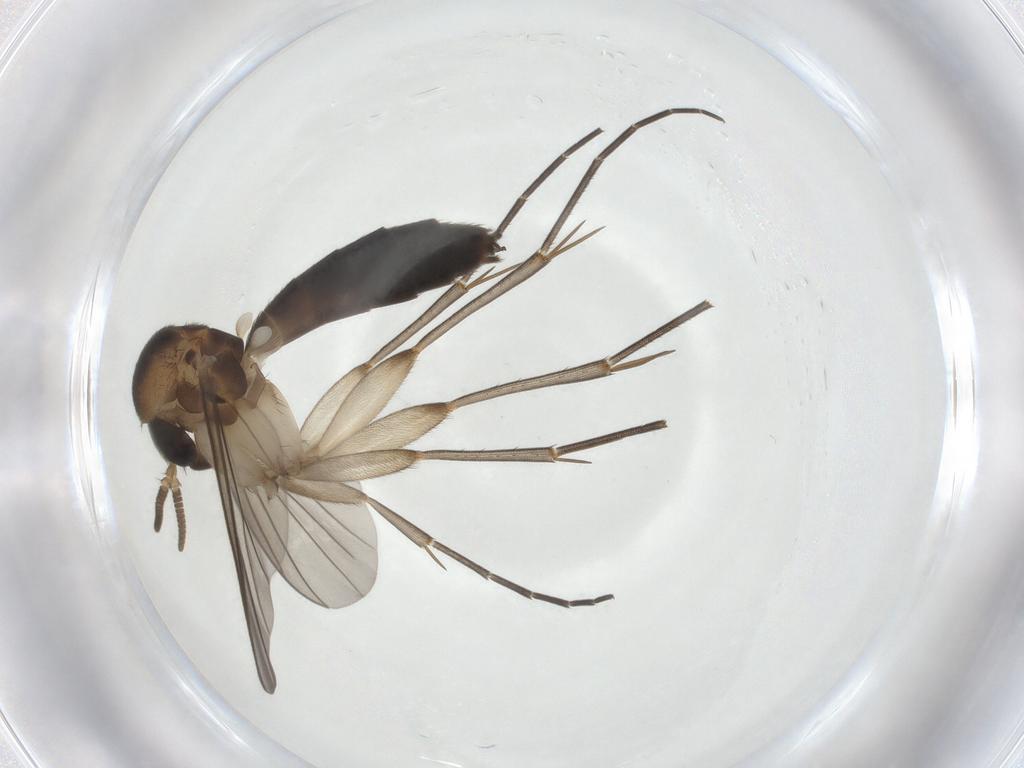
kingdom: Animalia
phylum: Arthropoda
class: Insecta
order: Diptera
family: Mycetophilidae
